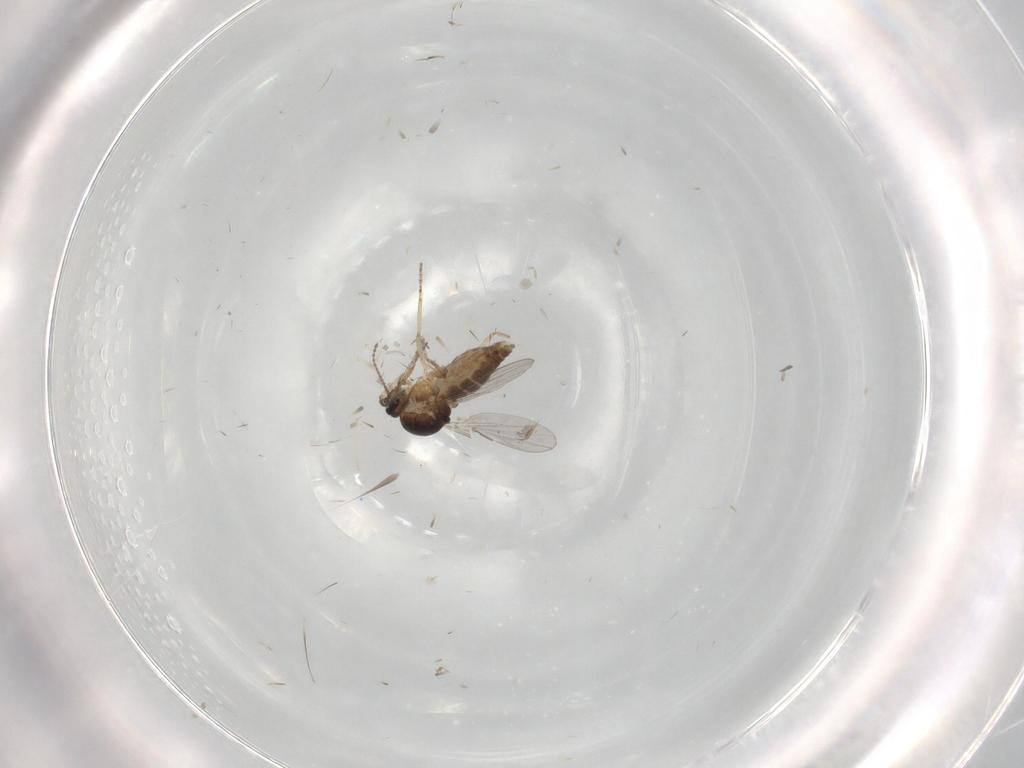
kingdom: Animalia
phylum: Arthropoda
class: Insecta
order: Diptera
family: Ceratopogonidae
